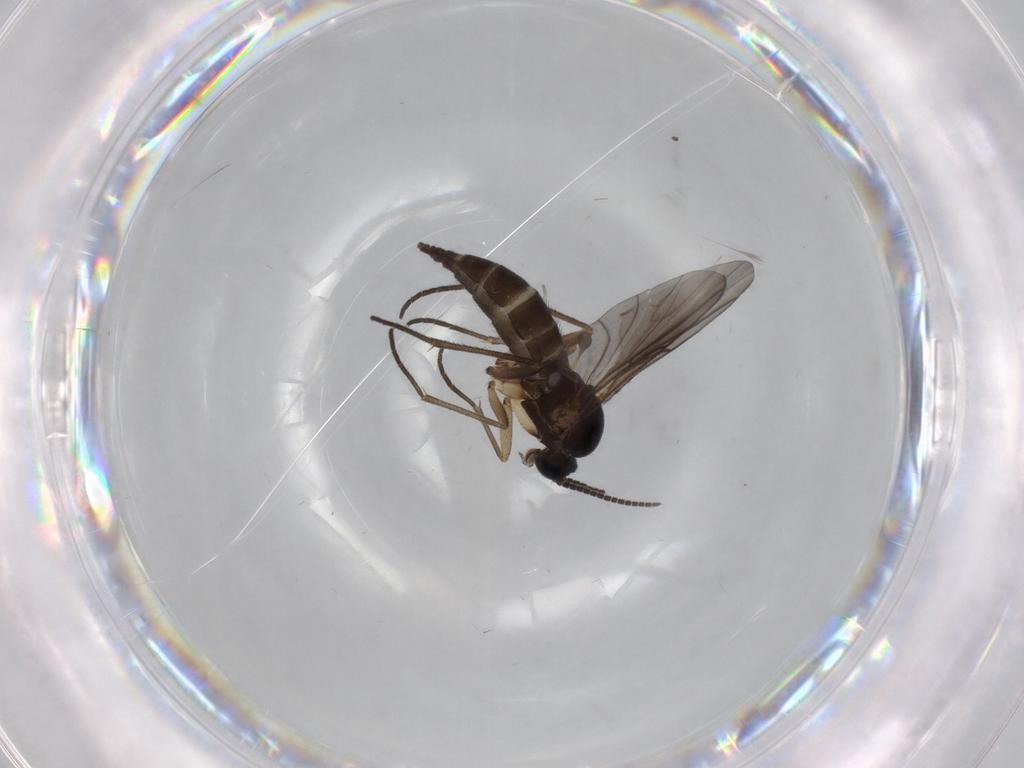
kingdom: Animalia
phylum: Arthropoda
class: Insecta
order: Diptera
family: Sciaridae
